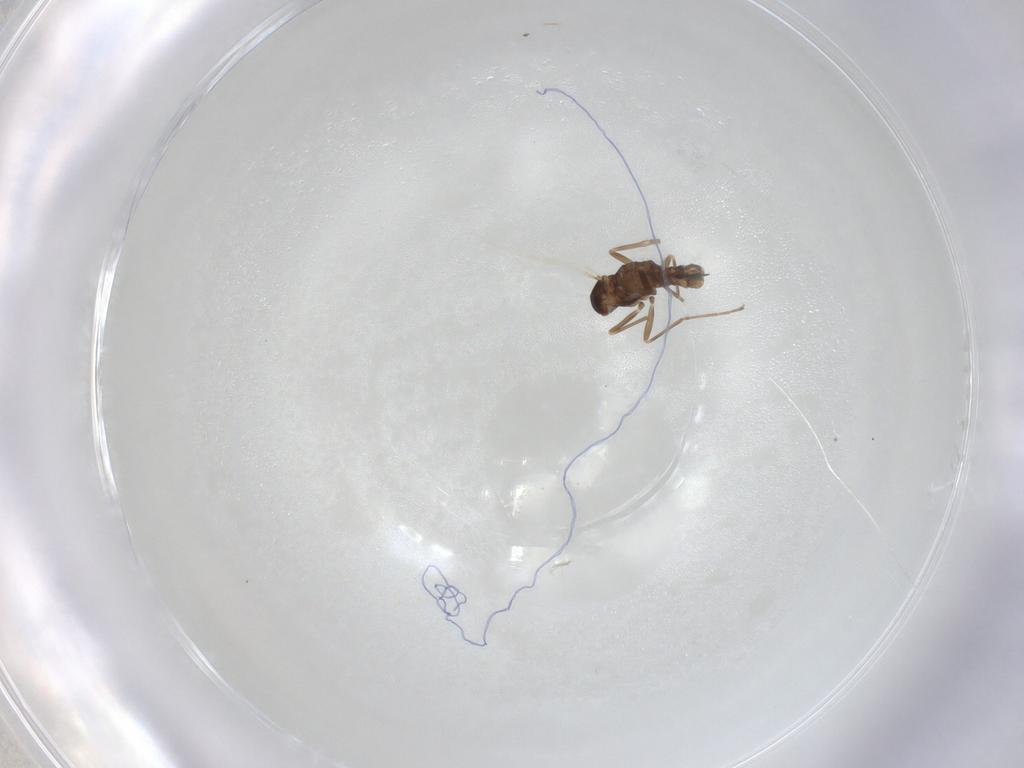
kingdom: Animalia
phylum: Arthropoda
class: Insecta
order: Diptera
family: Cecidomyiidae
